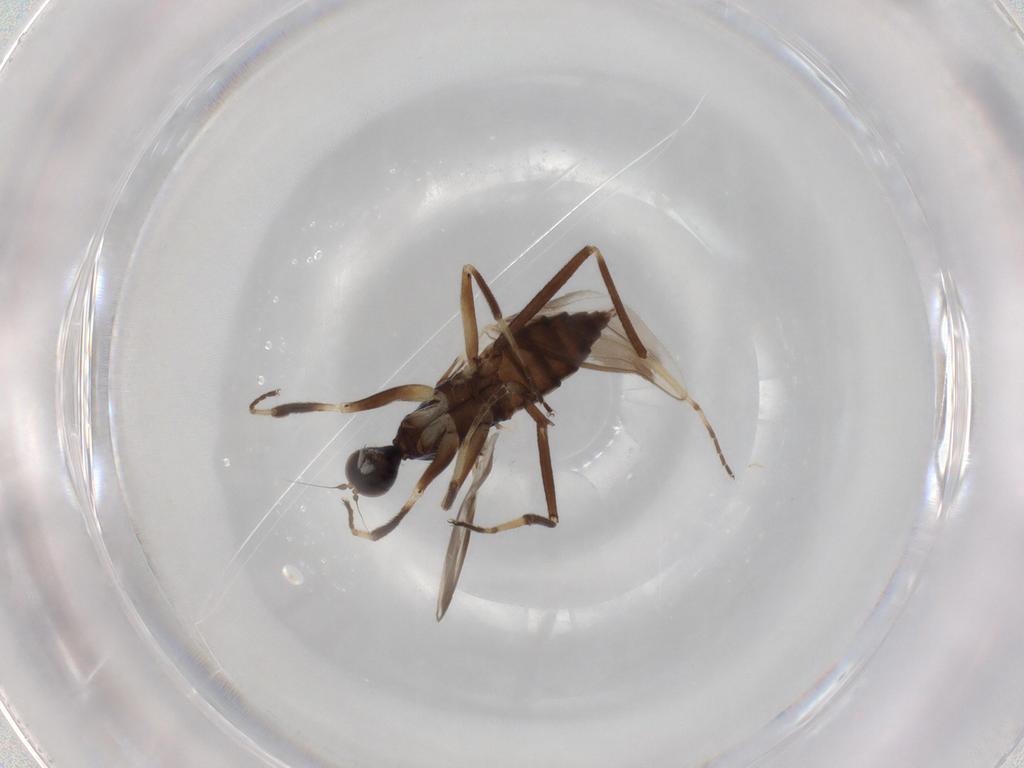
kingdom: Animalia
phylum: Arthropoda
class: Insecta
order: Diptera
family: Hybotidae
